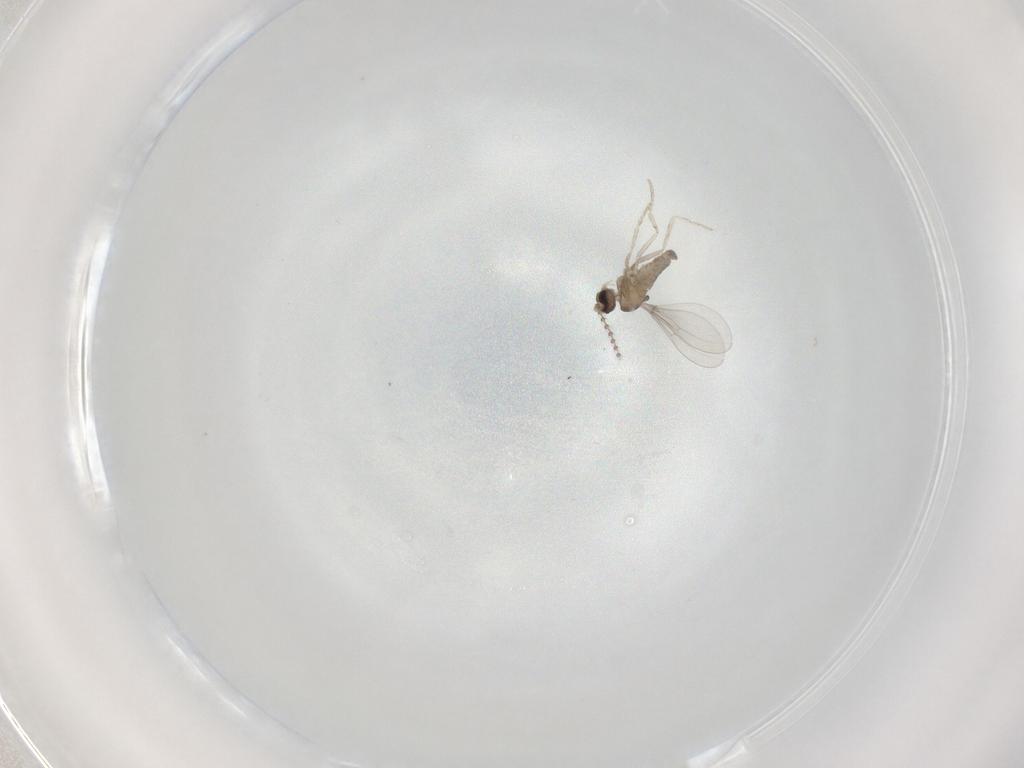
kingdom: Animalia
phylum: Arthropoda
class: Insecta
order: Diptera
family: Cecidomyiidae
